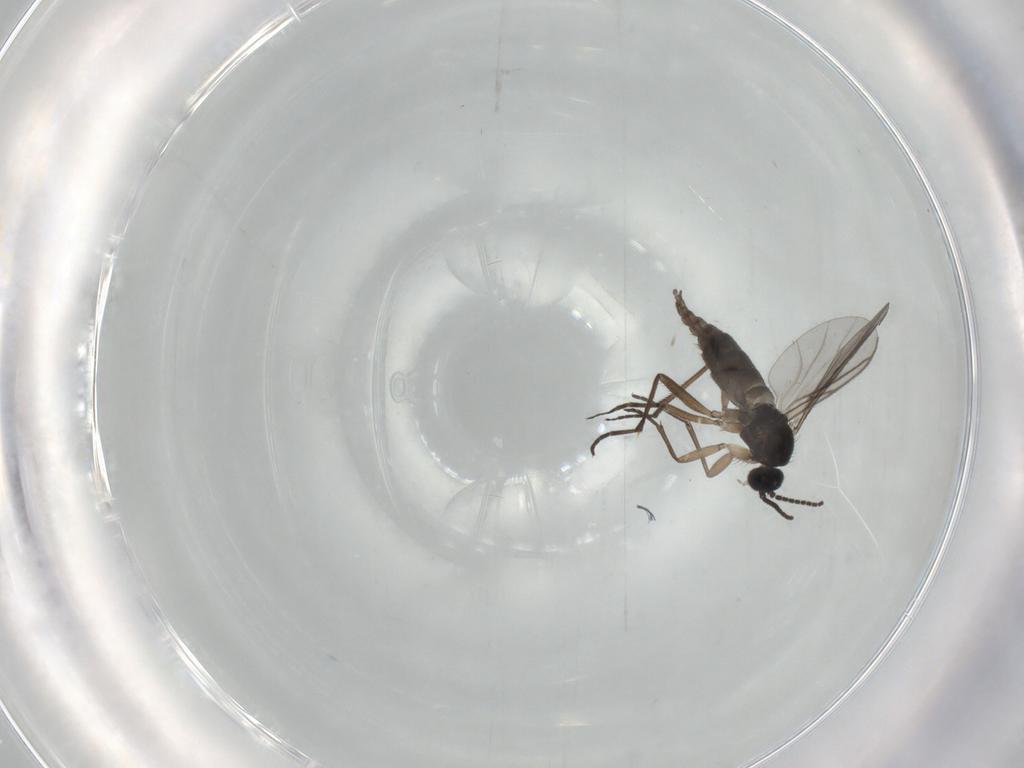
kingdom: Animalia
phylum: Arthropoda
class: Insecta
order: Diptera
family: Sciaridae
